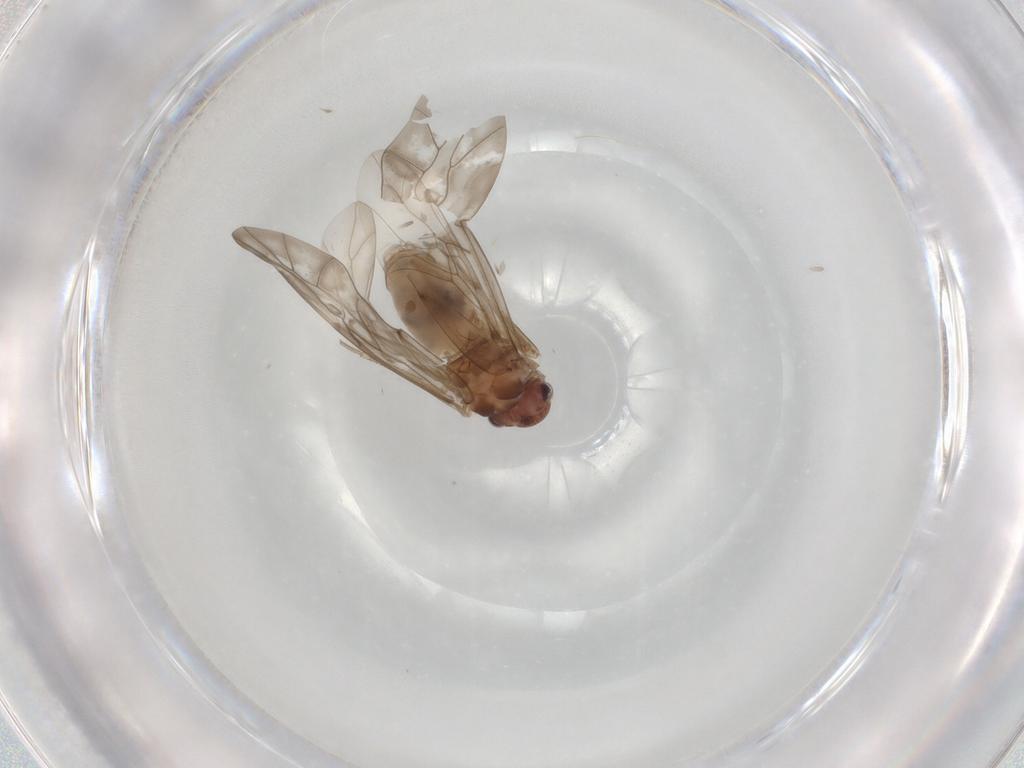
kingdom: Animalia
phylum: Arthropoda
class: Insecta
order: Psocodea
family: Peripsocidae
